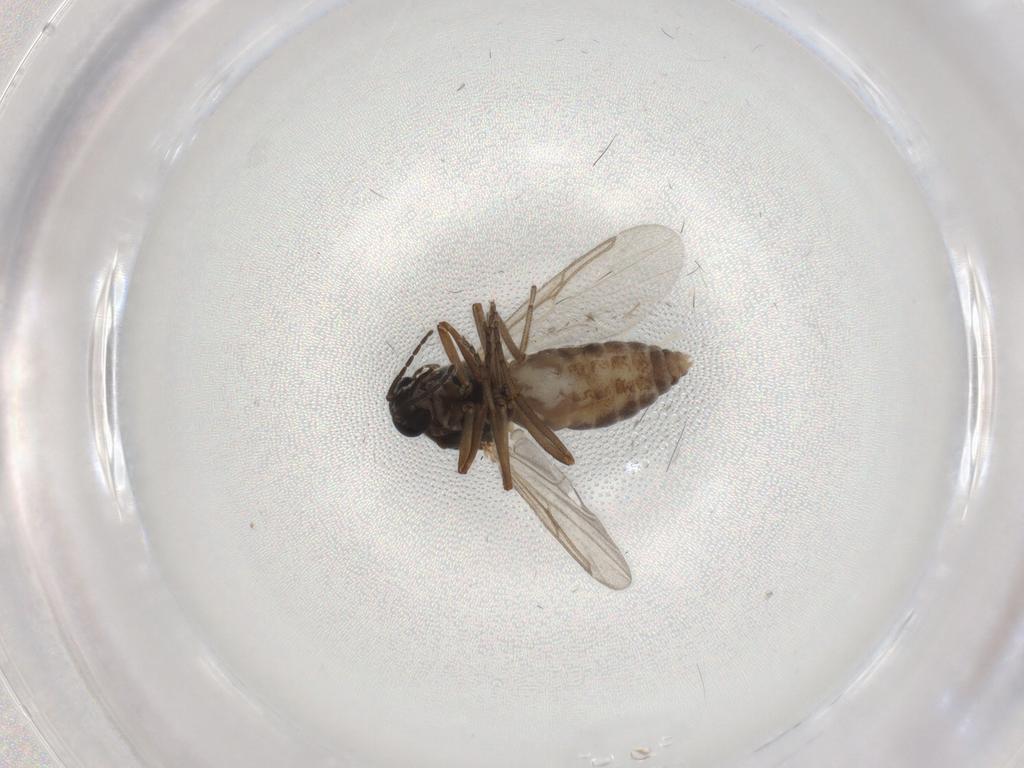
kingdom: Animalia
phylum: Arthropoda
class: Insecta
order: Diptera
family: Ceratopogonidae
